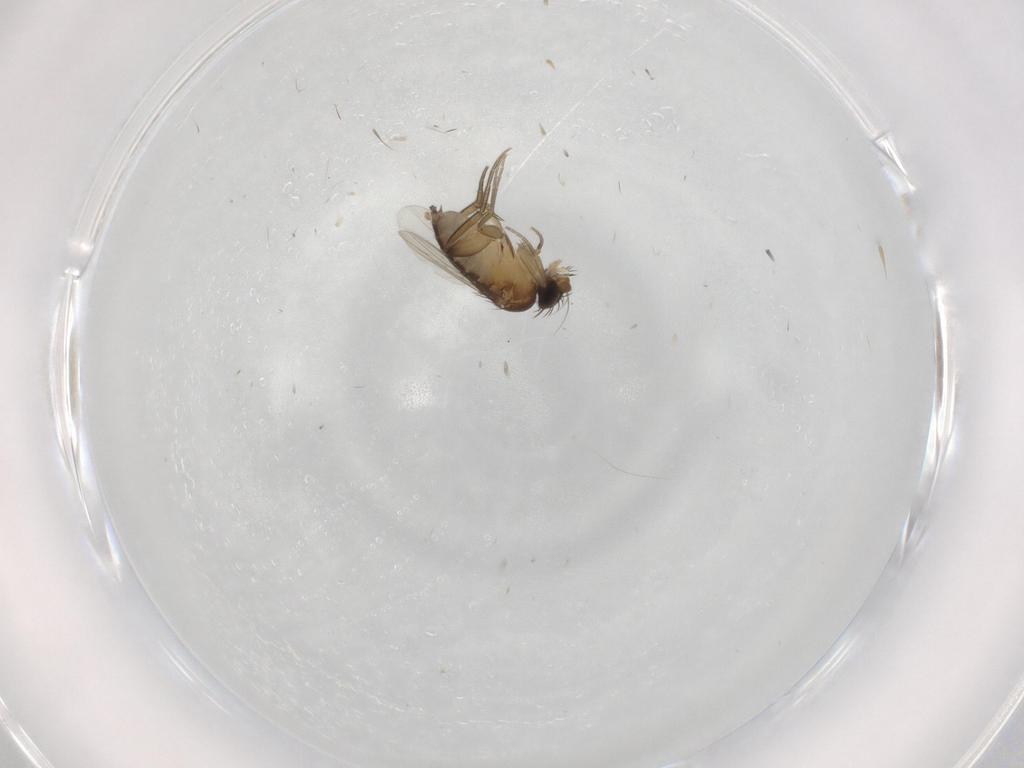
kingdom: Animalia
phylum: Arthropoda
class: Insecta
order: Diptera
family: Phoridae
